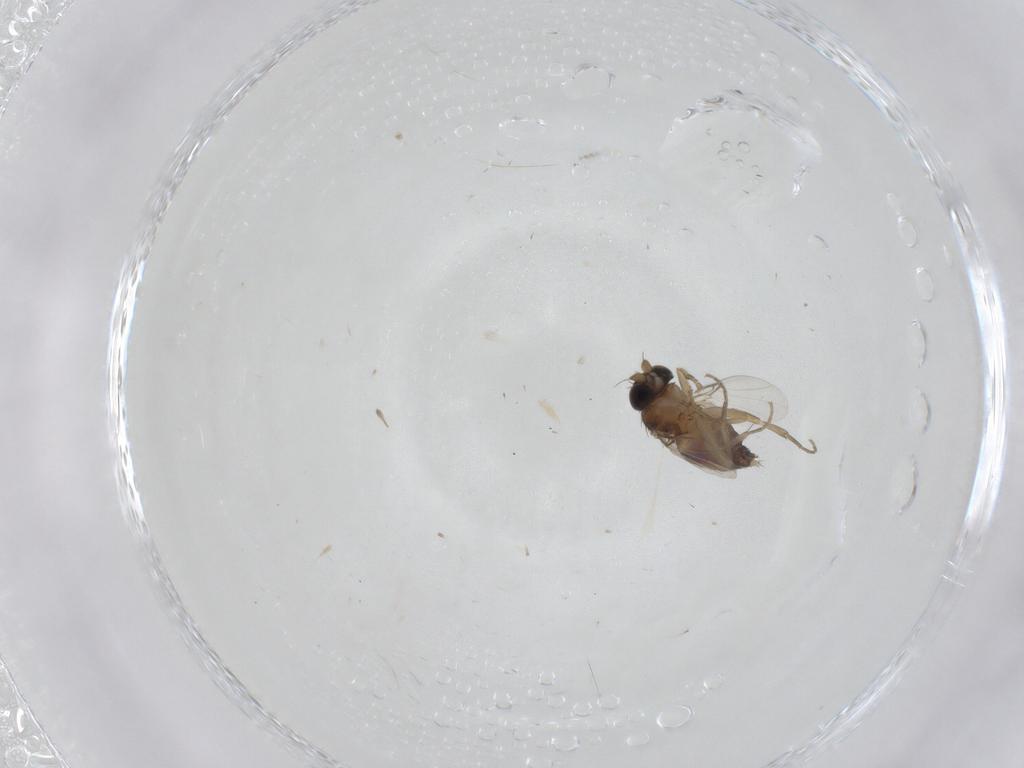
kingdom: Animalia
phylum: Arthropoda
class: Insecta
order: Diptera
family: Phoridae
